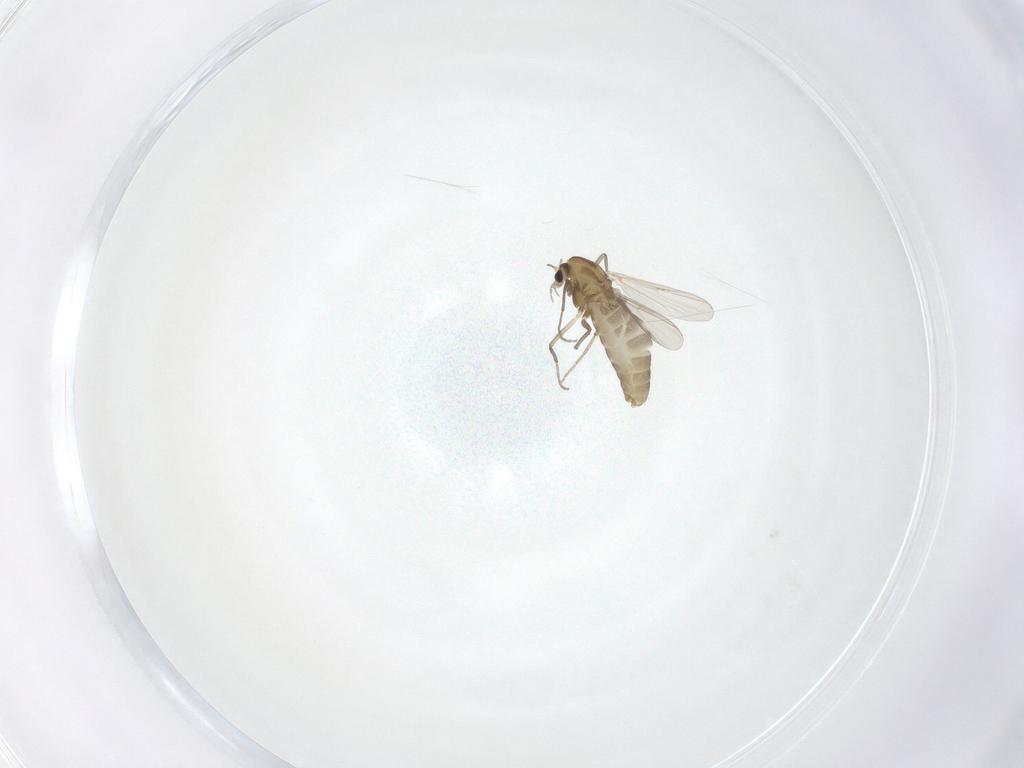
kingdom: Animalia
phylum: Arthropoda
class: Insecta
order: Diptera
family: Chironomidae
